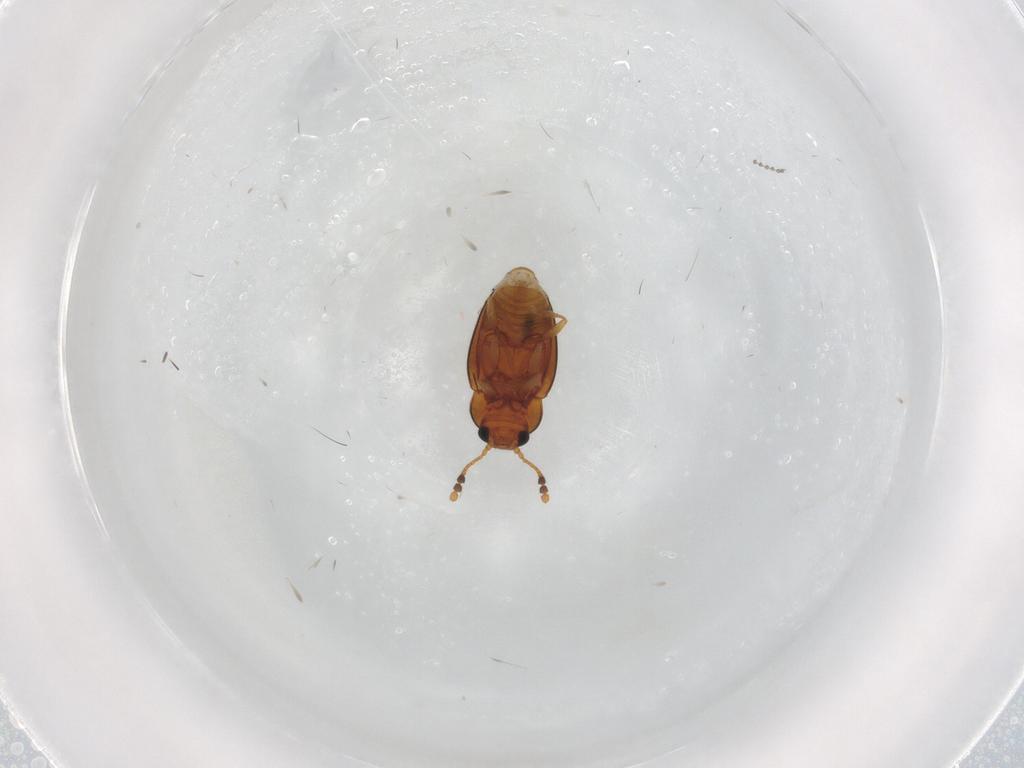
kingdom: Animalia
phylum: Arthropoda
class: Insecta
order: Coleoptera
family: Erotylidae
